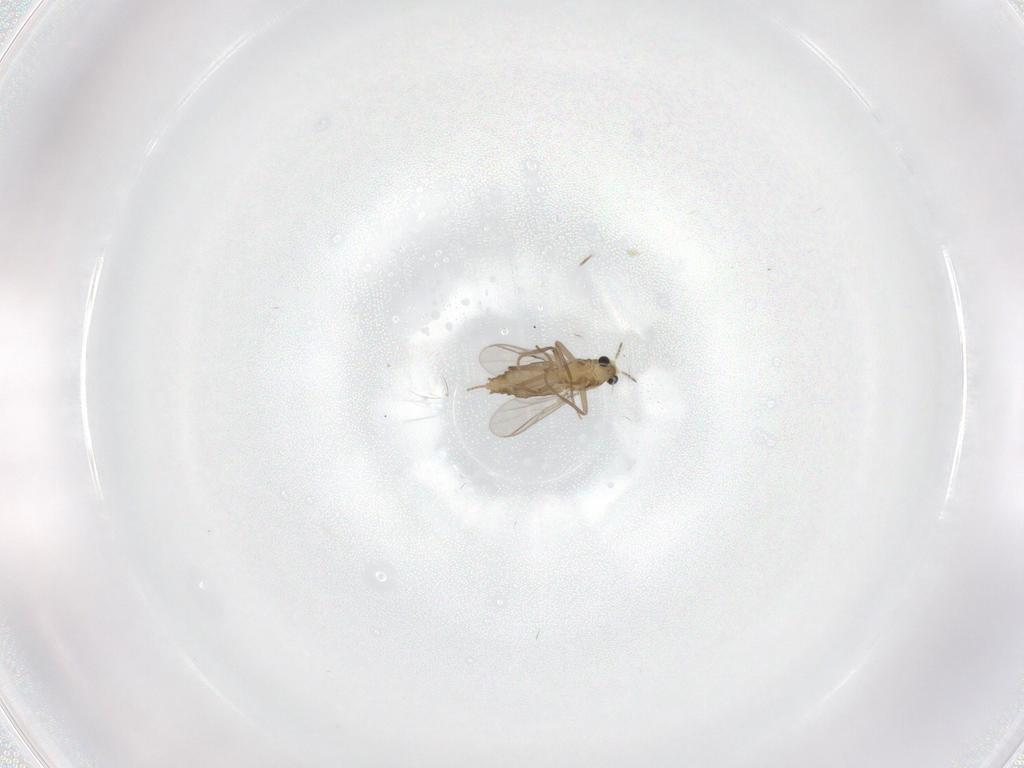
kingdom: Animalia
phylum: Arthropoda
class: Insecta
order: Diptera
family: Chironomidae
